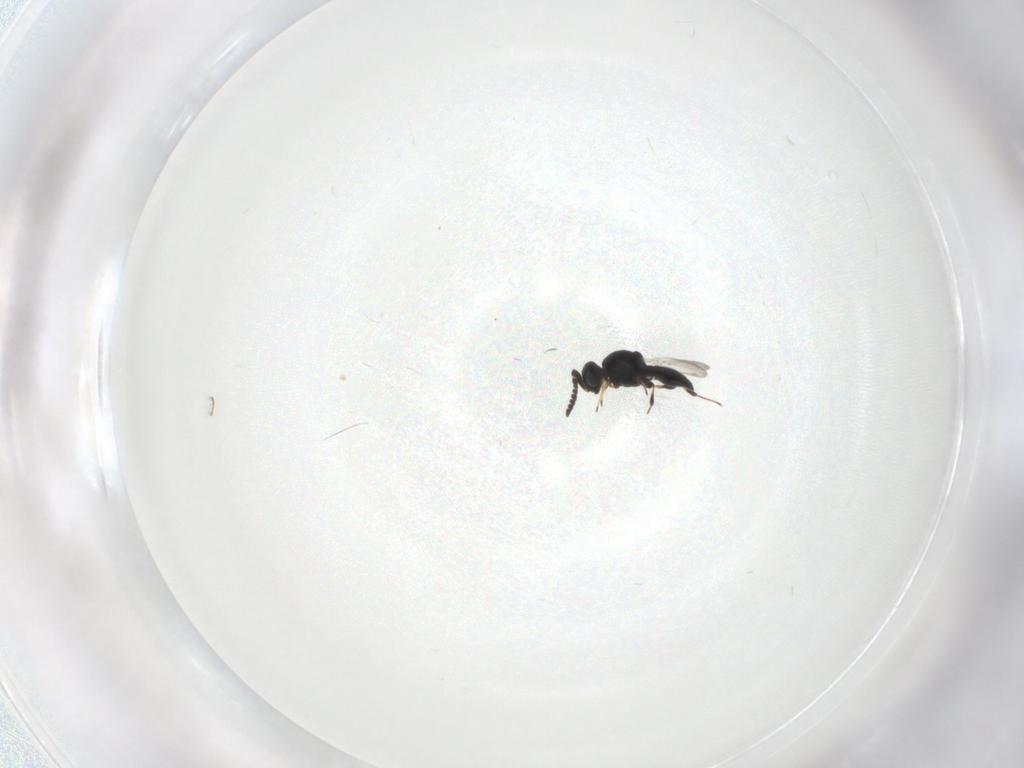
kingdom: Animalia
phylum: Arthropoda
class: Insecta
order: Hymenoptera
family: Platygastridae
